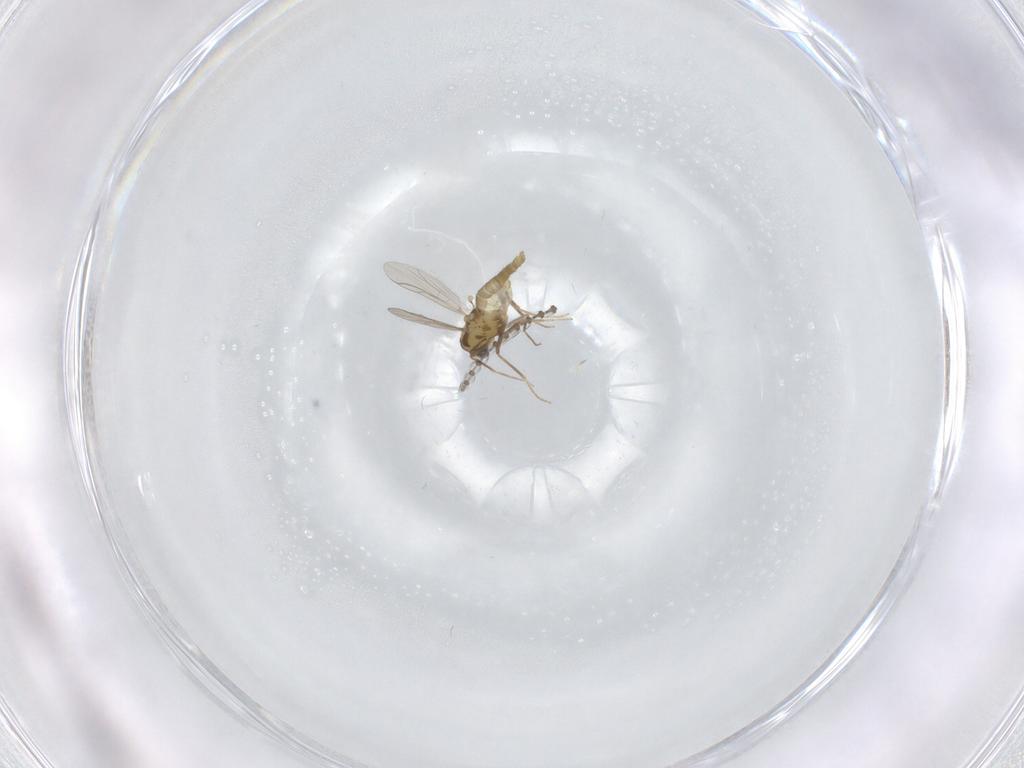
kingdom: Animalia
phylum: Arthropoda
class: Insecta
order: Diptera
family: Chironomidae
